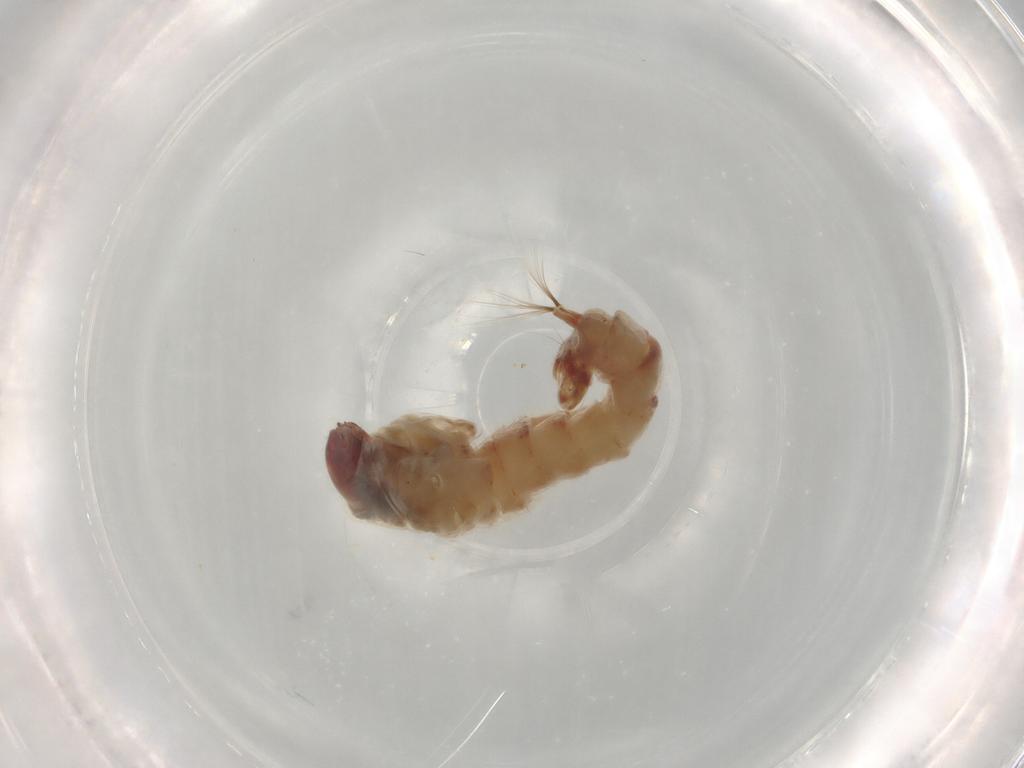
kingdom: Animalia
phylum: Arthropoda
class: Insecta
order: Diptera
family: Chironomidae
